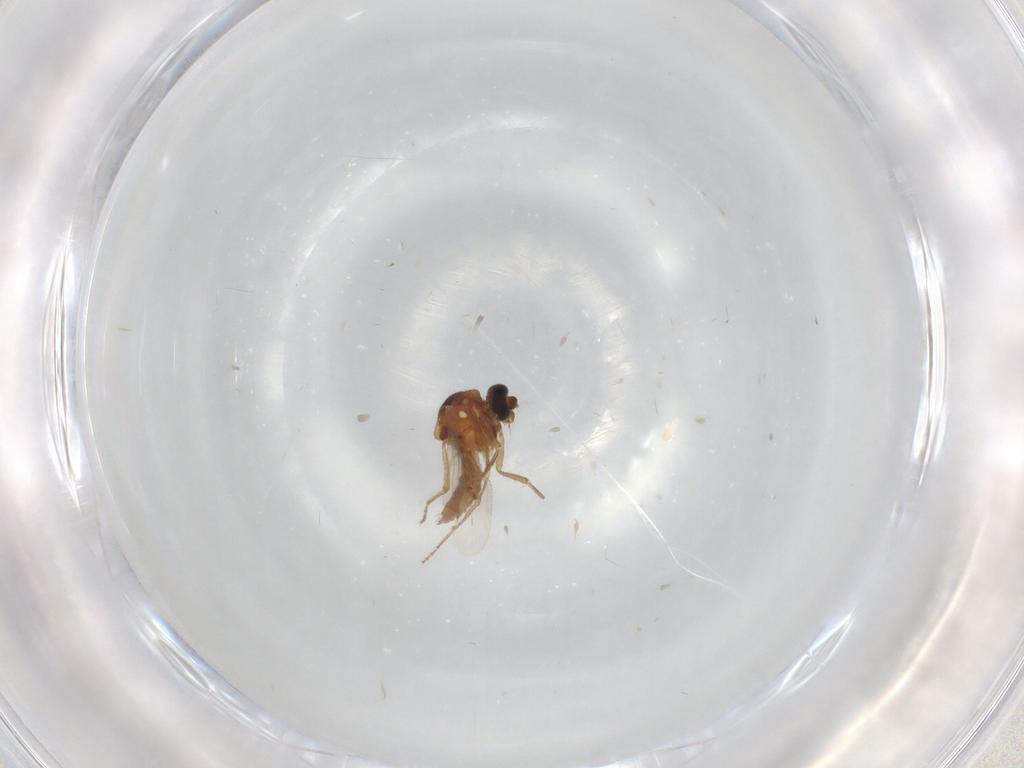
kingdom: Animalia
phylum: Arthropoda
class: Insecta
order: Diptera
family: Ceratopogonidae
